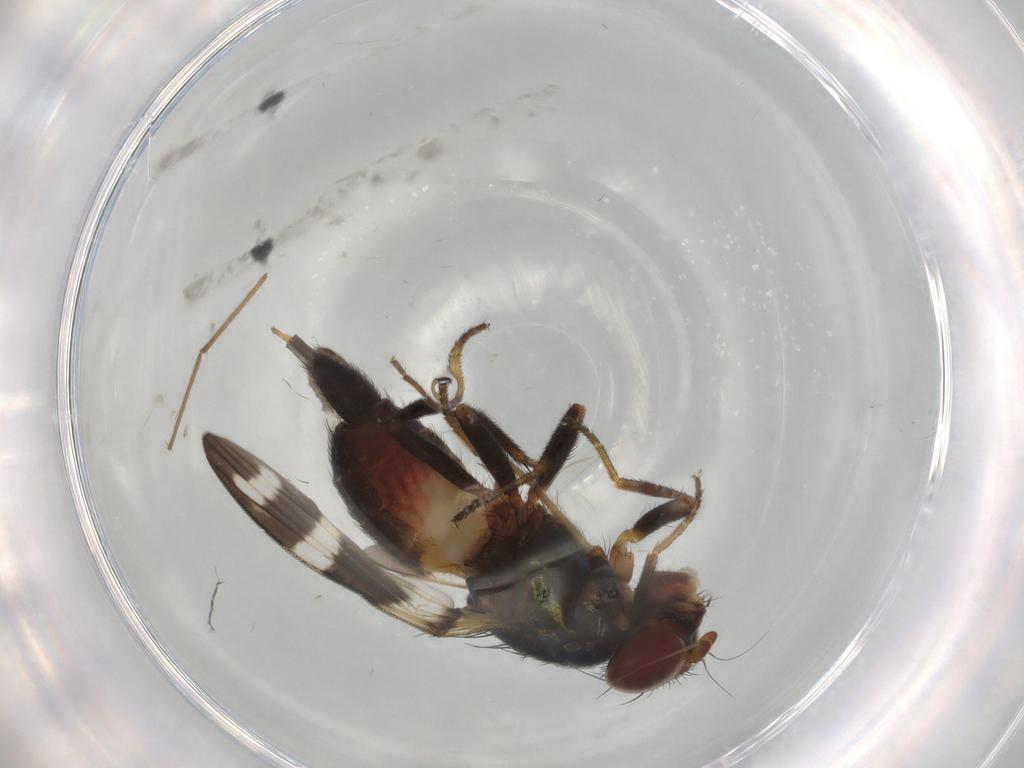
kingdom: Animalia
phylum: Arthropoda
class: Insecta
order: Diptera
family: Ulidiidae
